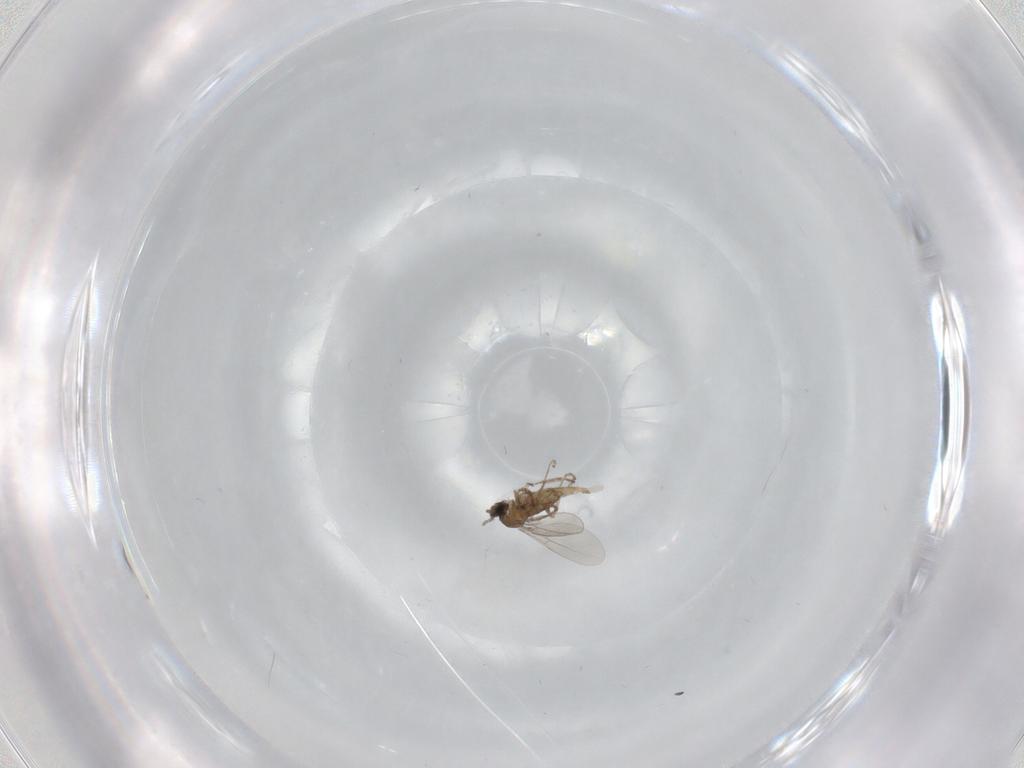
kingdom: Animalia
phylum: Arthropoda
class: Insecta
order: Diptera
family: Cecidomyiidae
